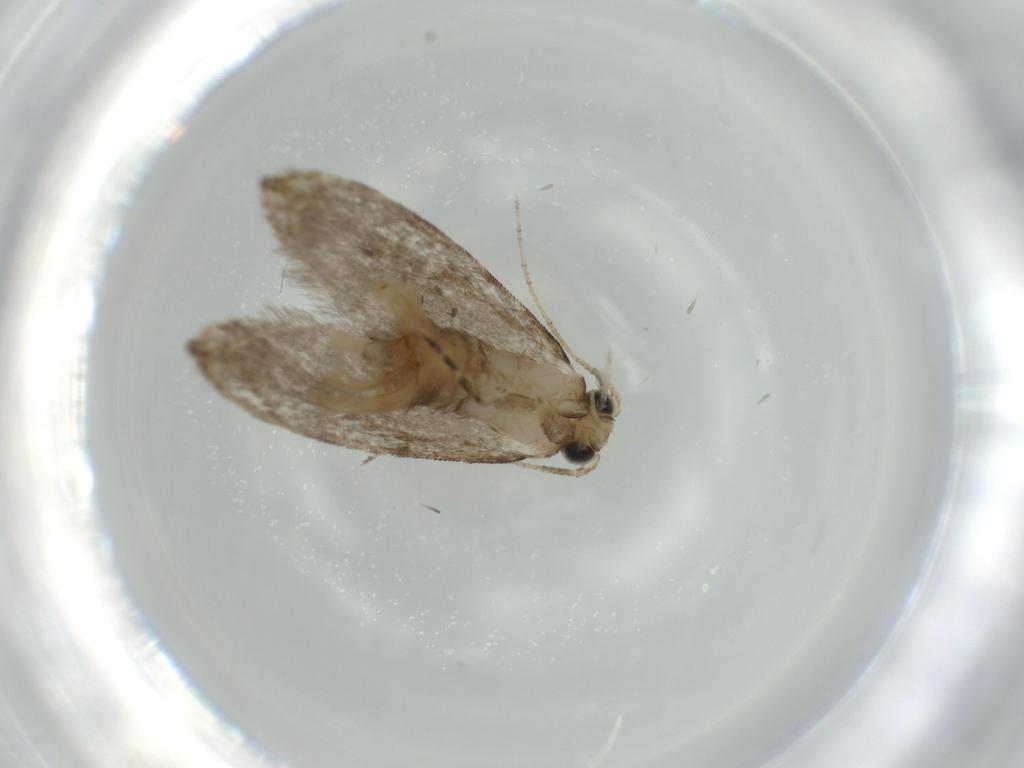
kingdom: Animalia
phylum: Arthropoda
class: Insecta
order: Lepidoptera
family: Tineidae
